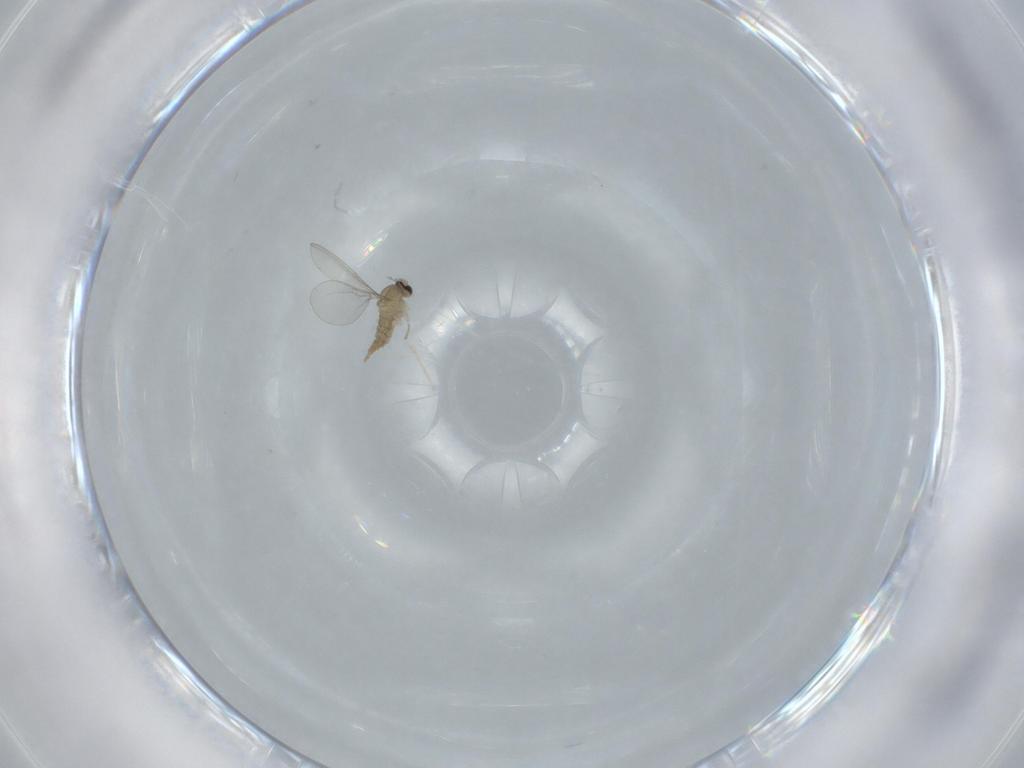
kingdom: Animalia
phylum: Arthropoda
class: Insecta
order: Diptera
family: Cecidomyiidae
